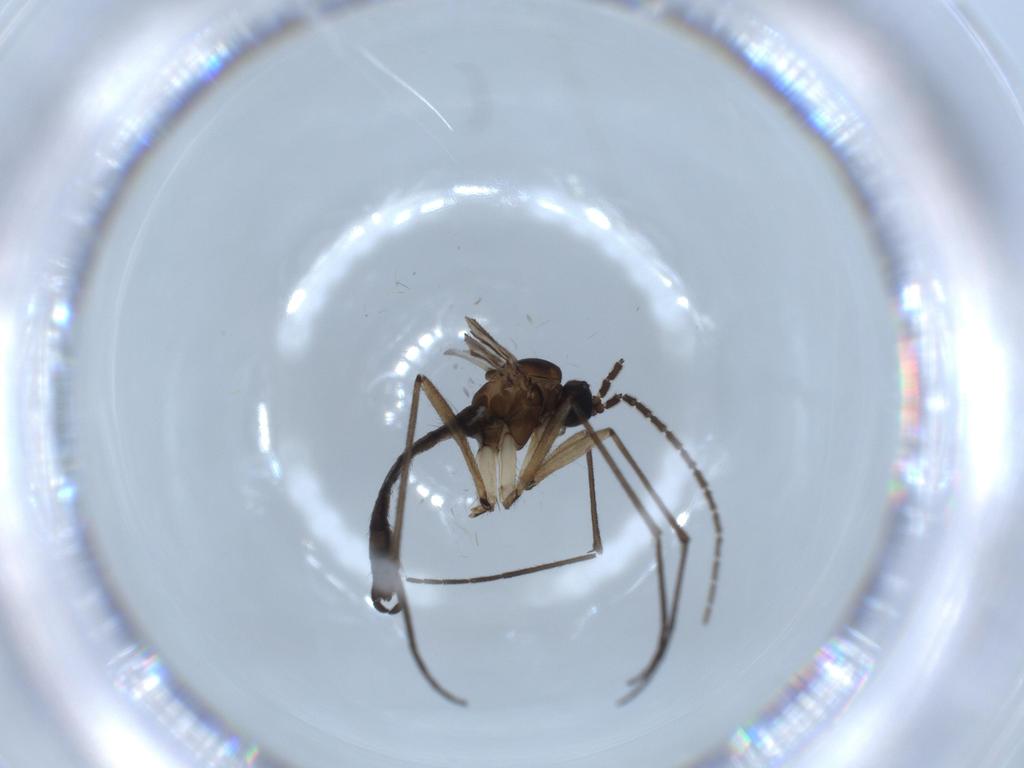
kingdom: Animalia
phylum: Arthropoda
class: Insecta
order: Diptera
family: Sciaridae
